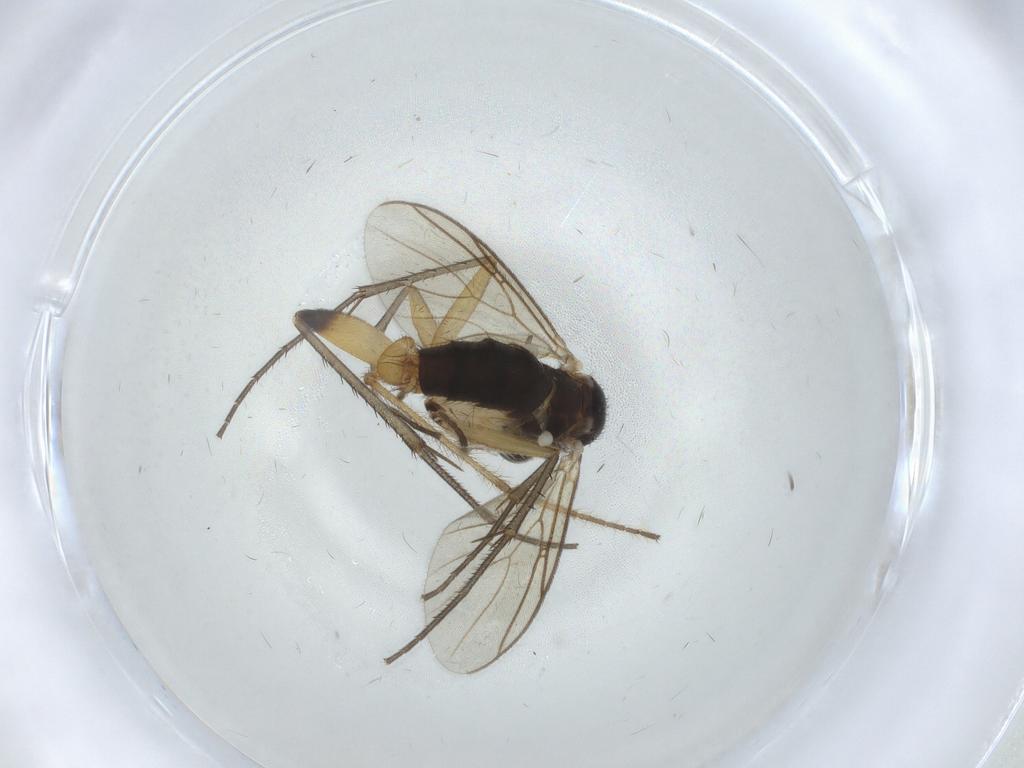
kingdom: Animalia
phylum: Arthropoda
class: Insecta
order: Diptera
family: Mycetophilidae
